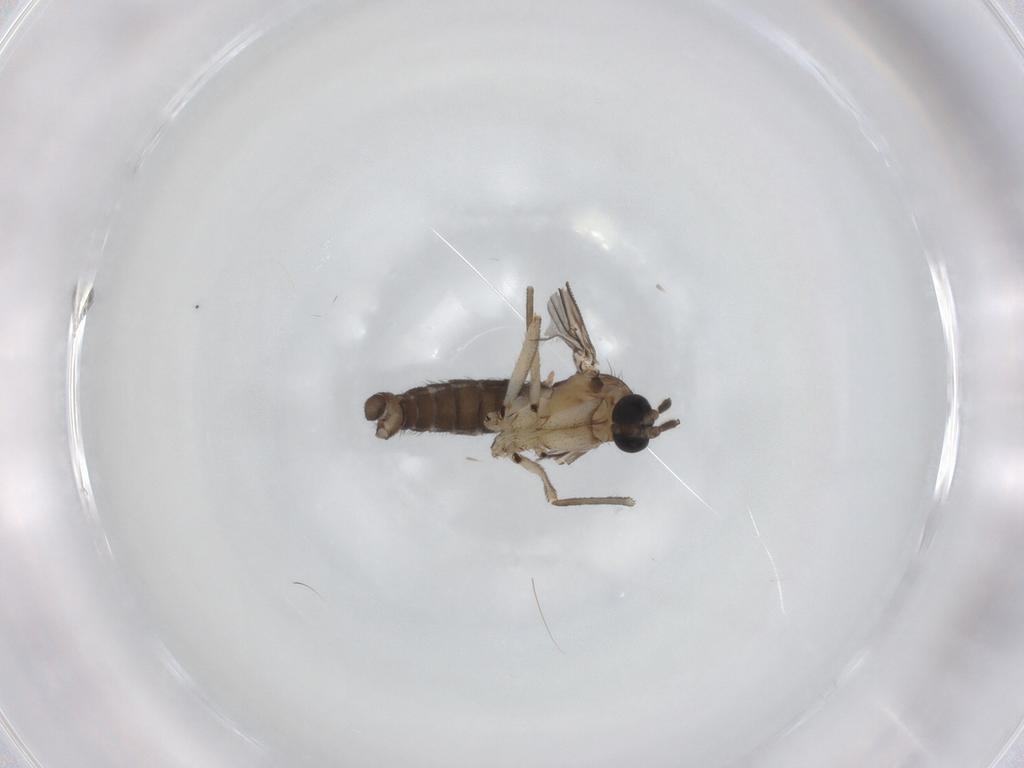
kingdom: Animalia
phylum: Arthropoda
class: Insecta
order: Diptera
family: Sciaridae
